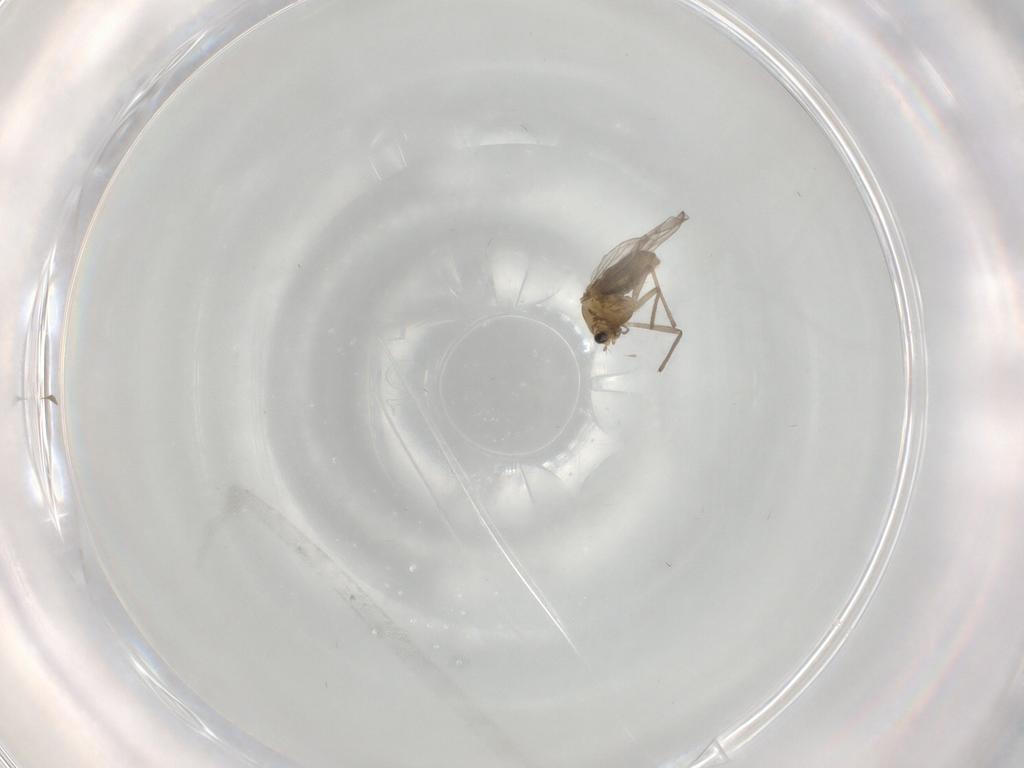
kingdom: Animalia
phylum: Arthropoda
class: Insecta
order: Diptera
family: Chironomidae
